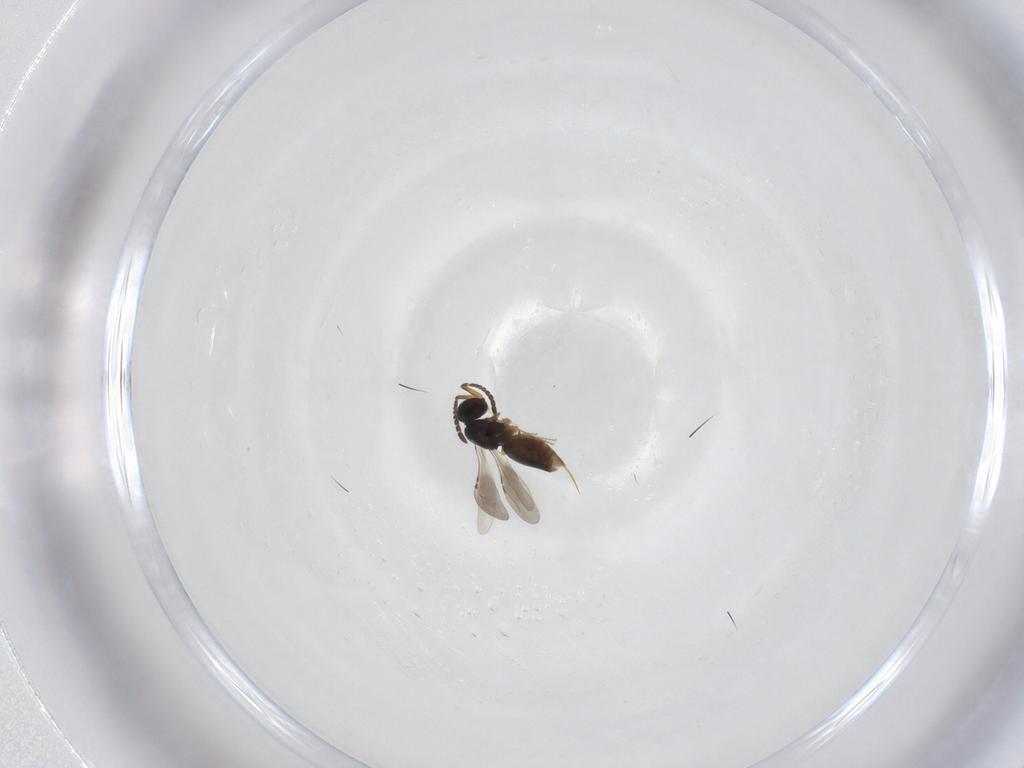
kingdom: Animalia
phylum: Arthropoda
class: Insecta
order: Hymenoptera
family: Ceraphronidae
